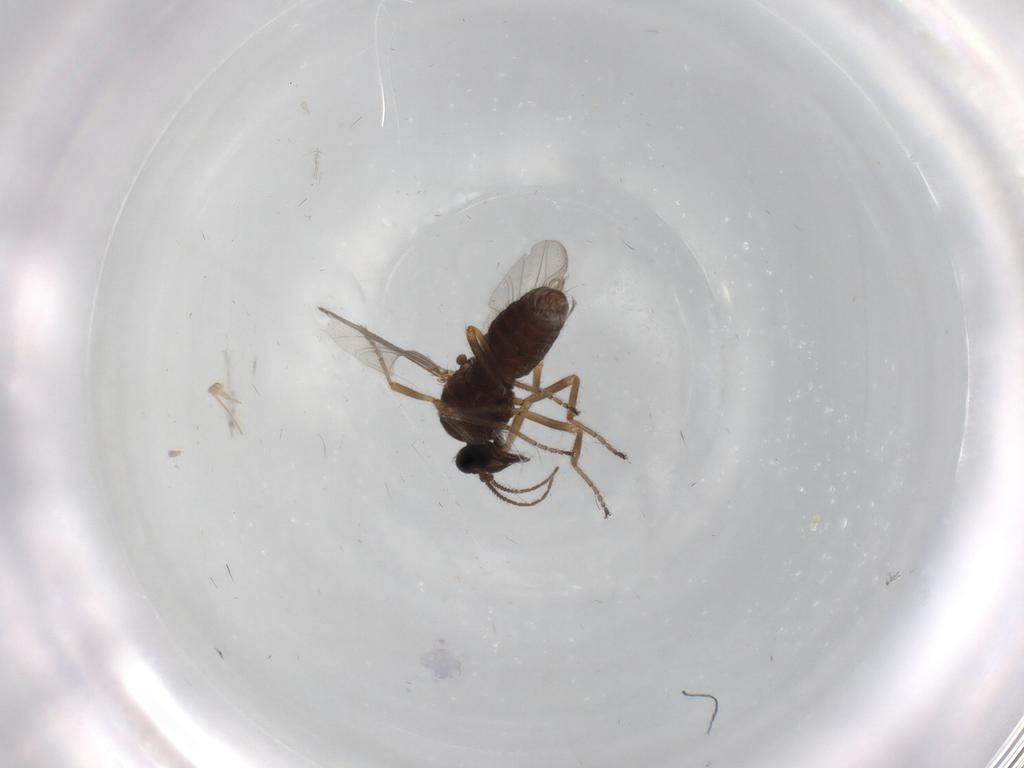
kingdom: Animalia
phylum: Arthropoda
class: Insecta
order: Diptera
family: Ceratopogonidae
